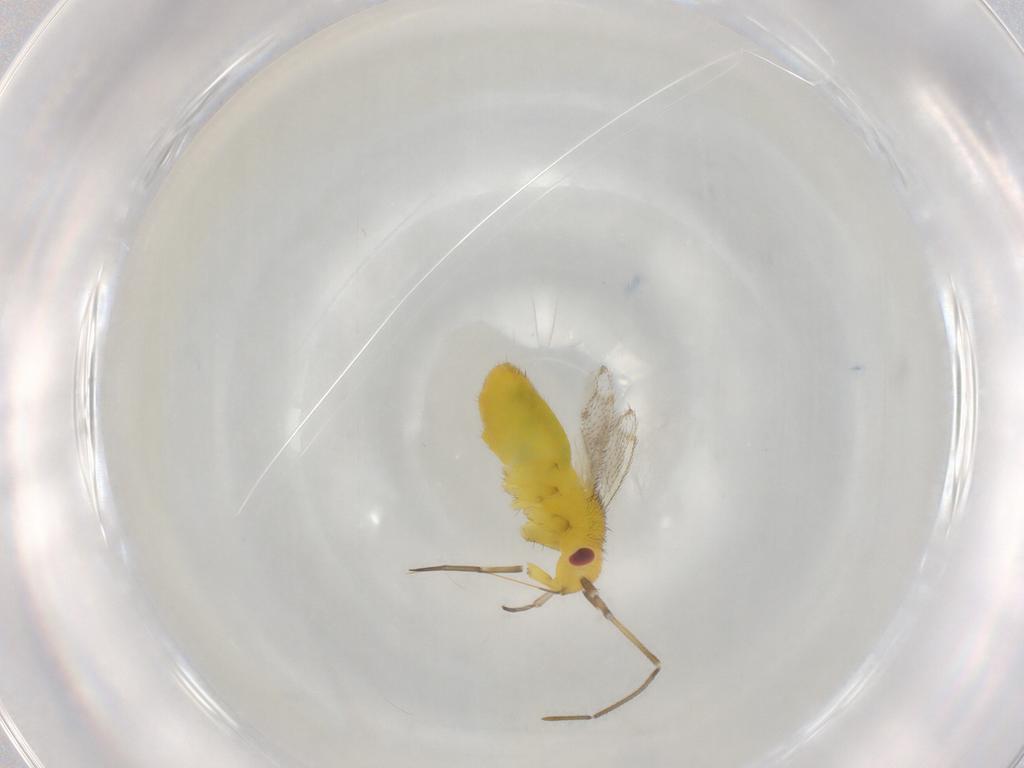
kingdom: Animalia
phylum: Arthropoda
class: Insecta
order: Hemiptera
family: Miridae
